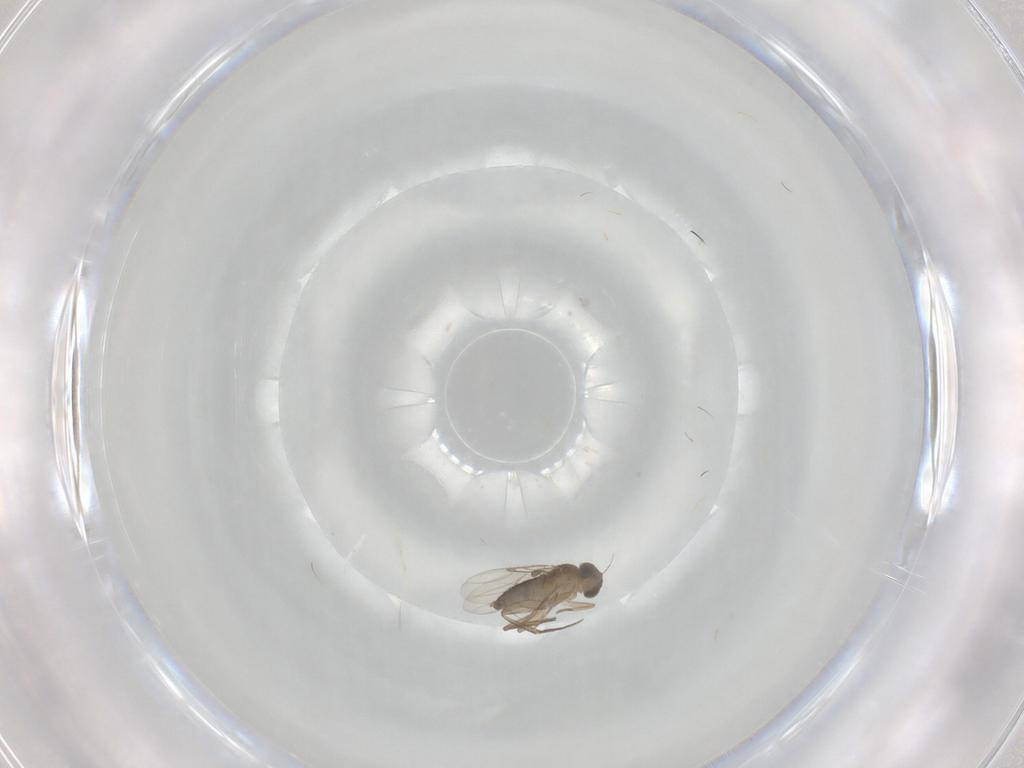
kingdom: Animalia
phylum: Arthropoda
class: Insecta
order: Diptera
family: Phoridae
